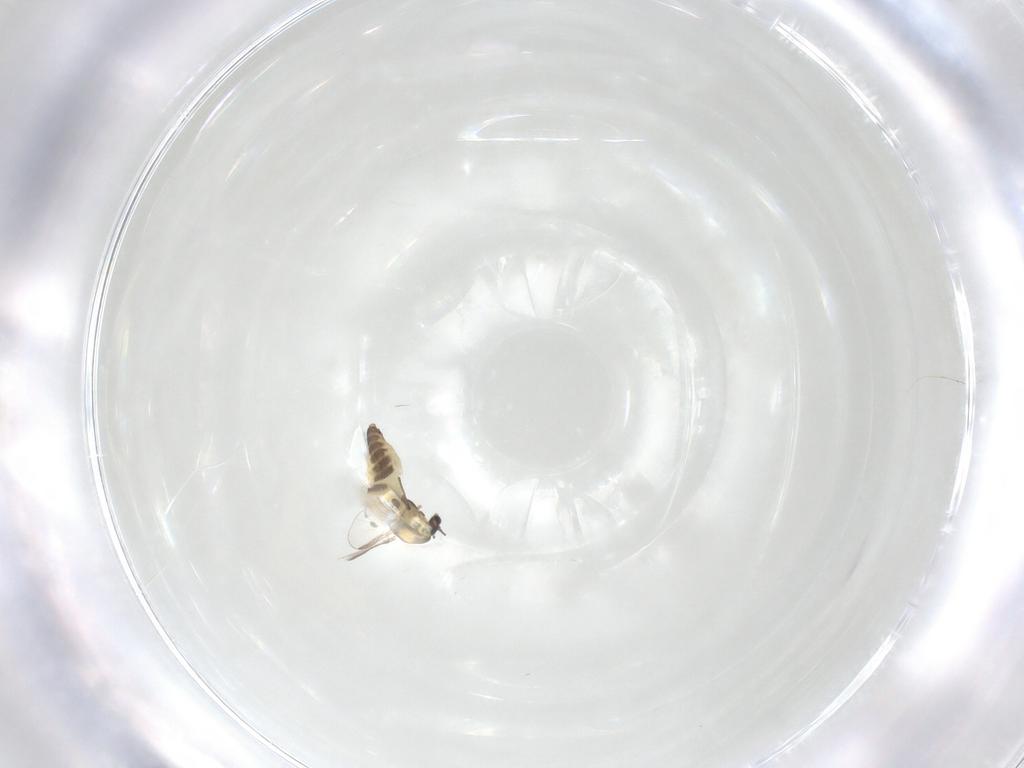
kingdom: Animalia
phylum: Arthropoda
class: Insecta
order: Diptera
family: Chironomidae
